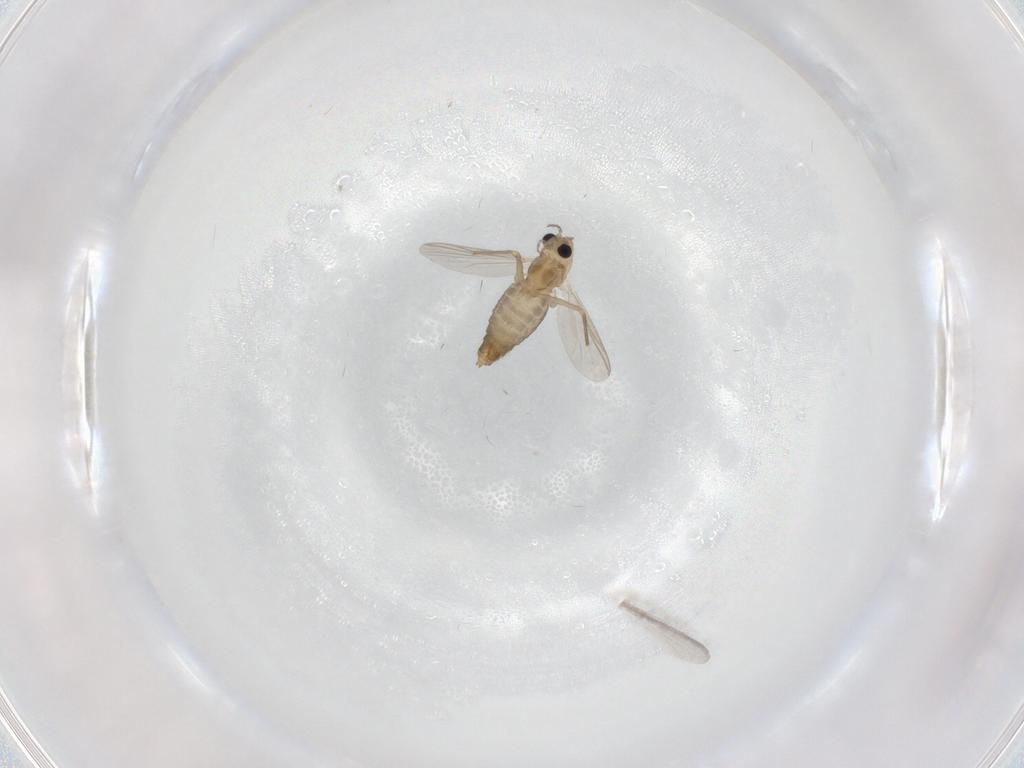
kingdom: Animalia
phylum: Arthropoda
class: Insecta
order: Diptera
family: Chironomidae
